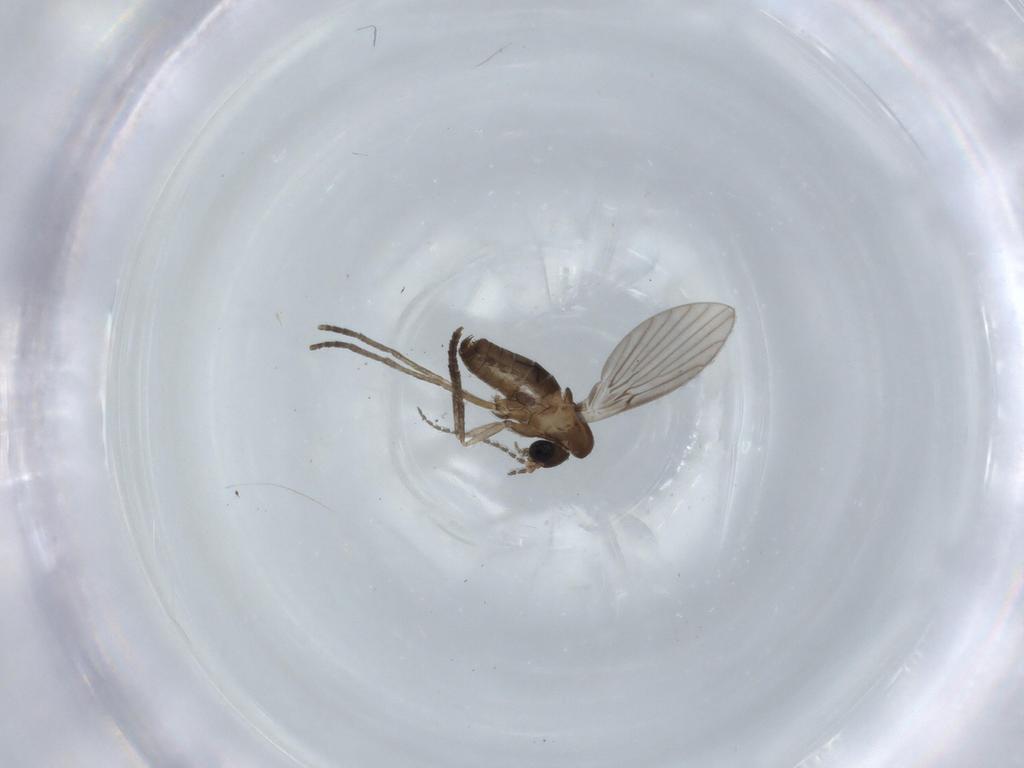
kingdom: Animalia
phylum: Arthropoda
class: Insecta
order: Diptera
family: Psychodidae
